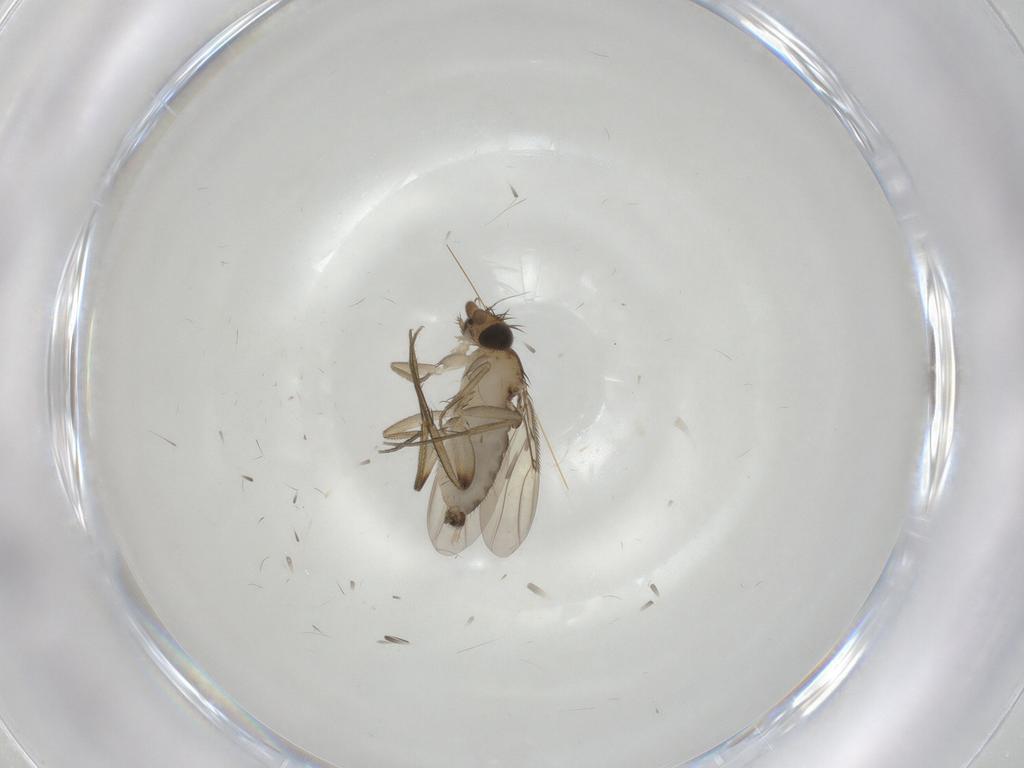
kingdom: Animalia
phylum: Arthropoda
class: Insecta
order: Diptera
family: Phoridae
